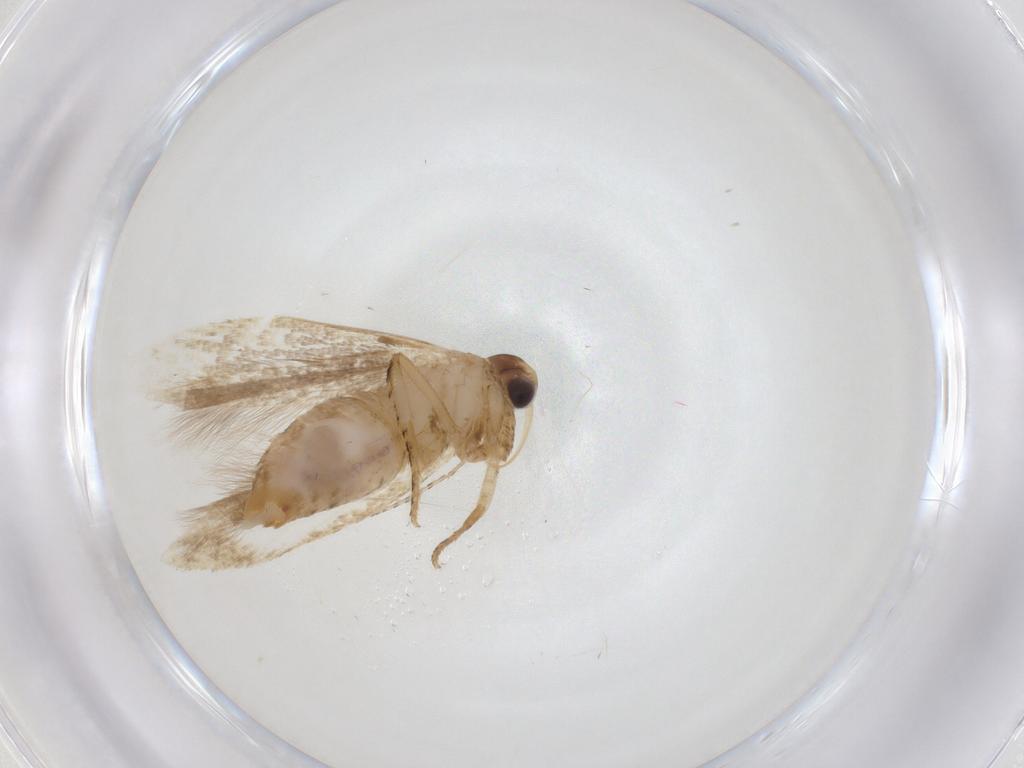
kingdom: Animalia
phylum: Arthropoda
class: Insecta
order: Lepidoptera
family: Gelechiidae
